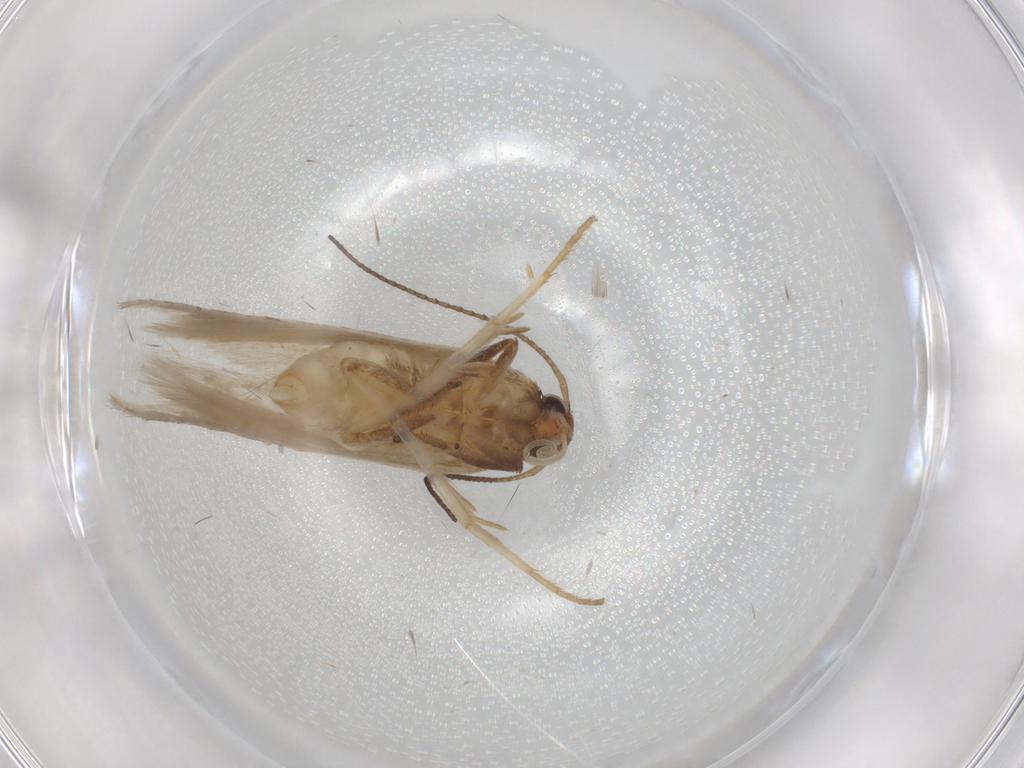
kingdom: Animalia
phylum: Arthropoda
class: Insecta
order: Lepidoptera
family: Gelechiidae
